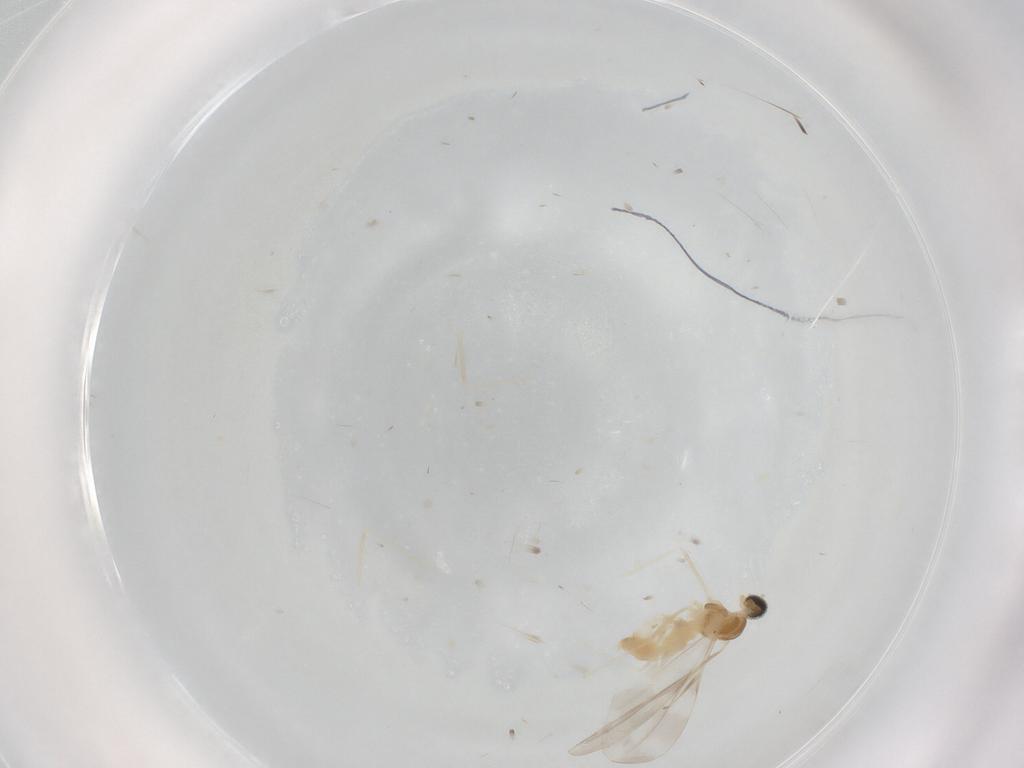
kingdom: Animalia
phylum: Arthropoda
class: Insecta
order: Diptera
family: Cecidomyiidae
